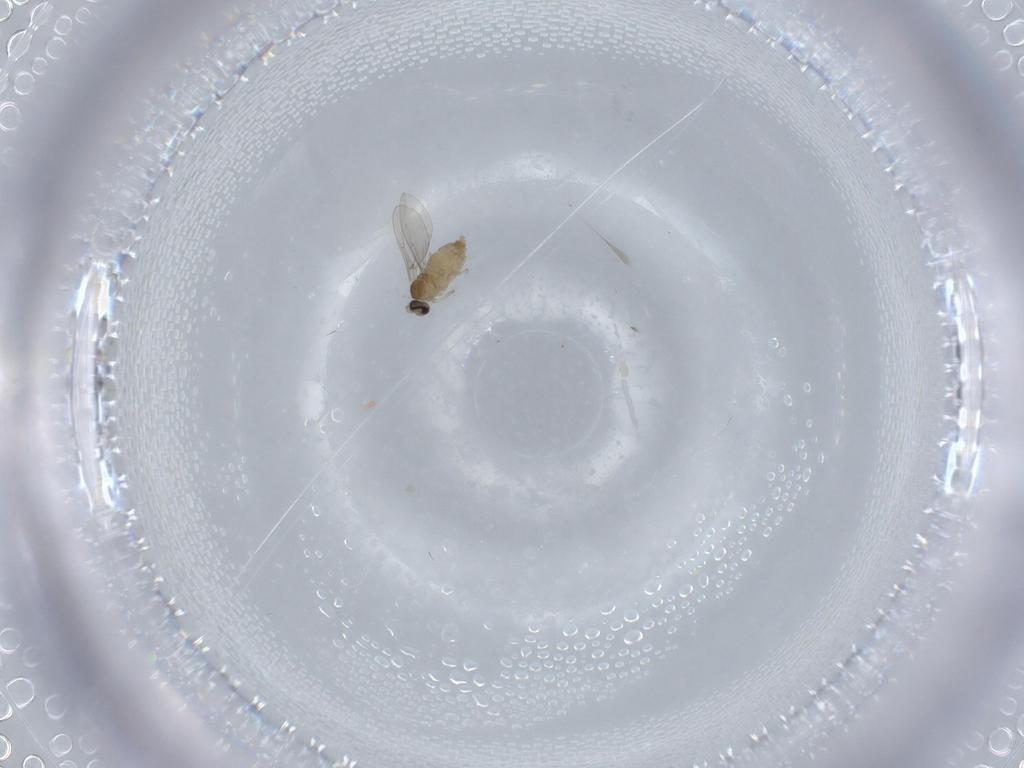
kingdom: Animalia
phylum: Arthropoda
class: Insecta
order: Diptera
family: Cecidomyiidae
